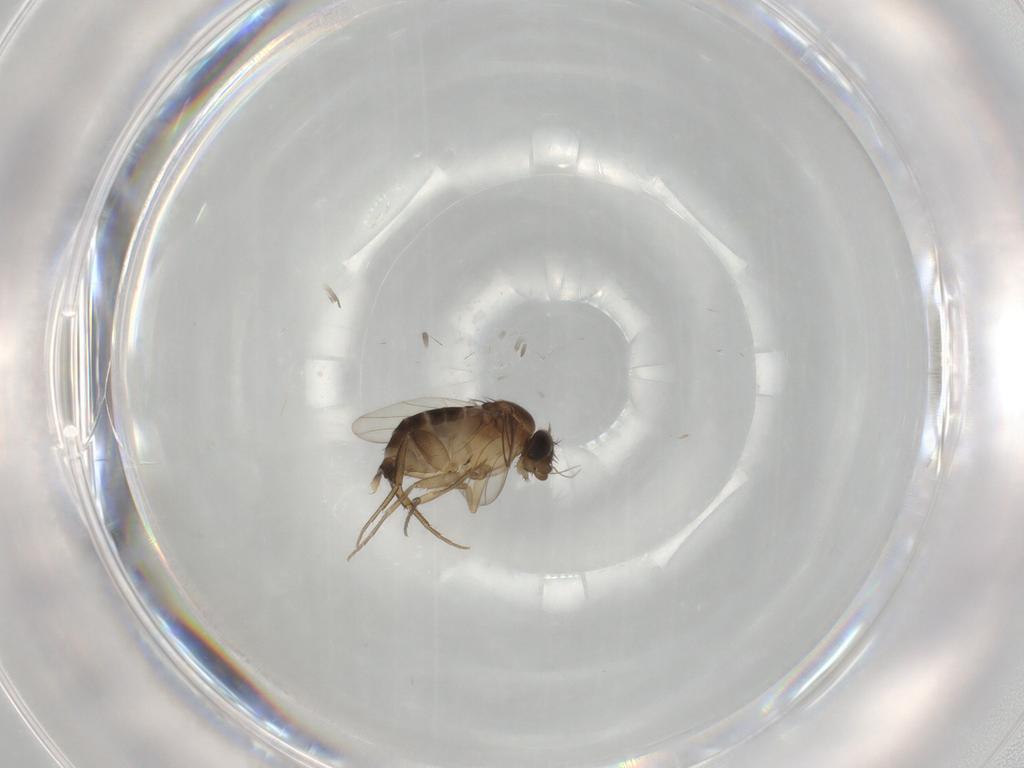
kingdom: Animalia
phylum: Arthropoda
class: Insecta
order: Diptera
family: Phoridae
